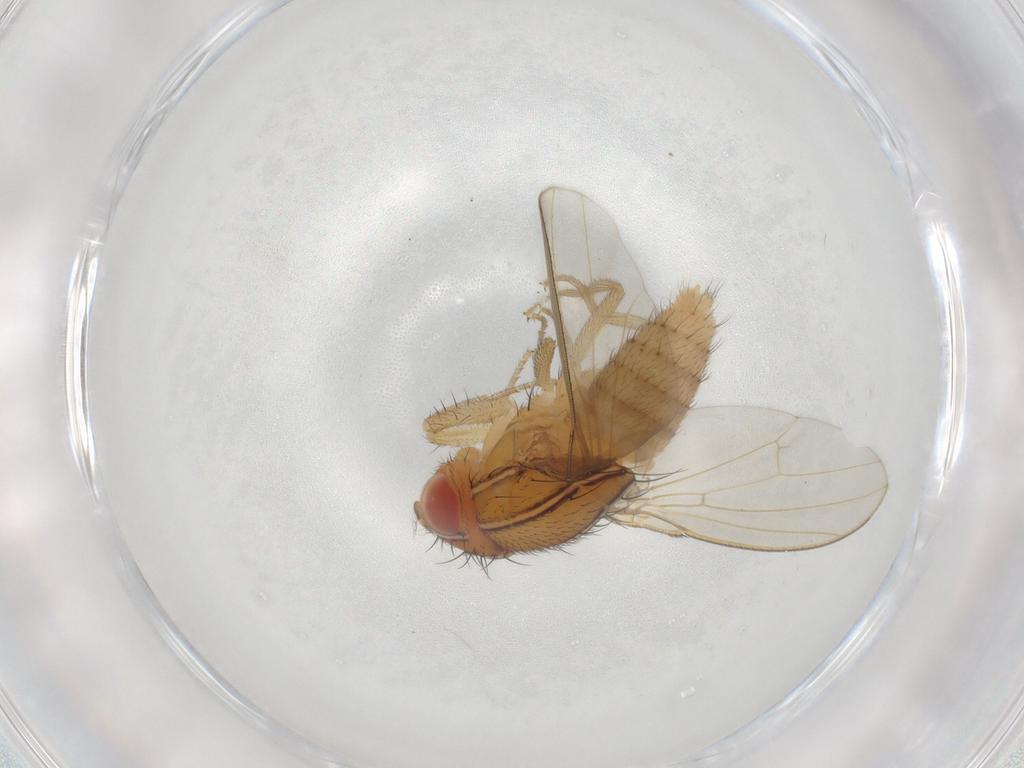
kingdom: Animalia
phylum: Arthropoda
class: Insecta
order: Diptera
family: Drosophilidae
